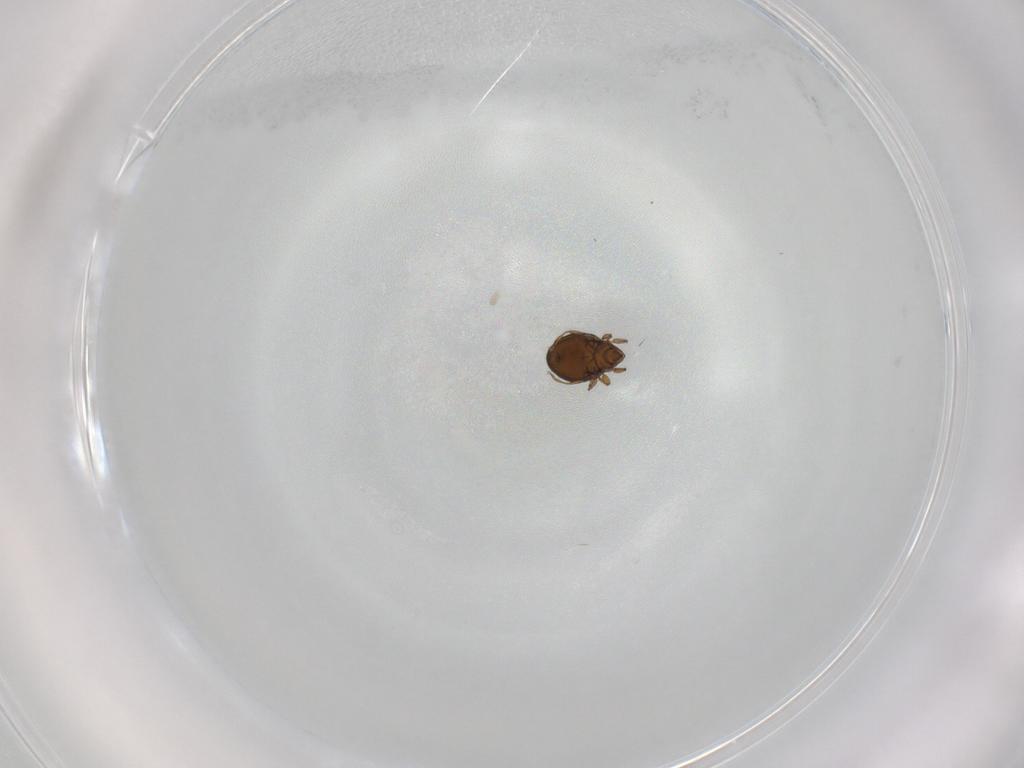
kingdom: Animalia
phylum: Arthropoda
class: Arachnida
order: Trombidiformes
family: Anystidae
